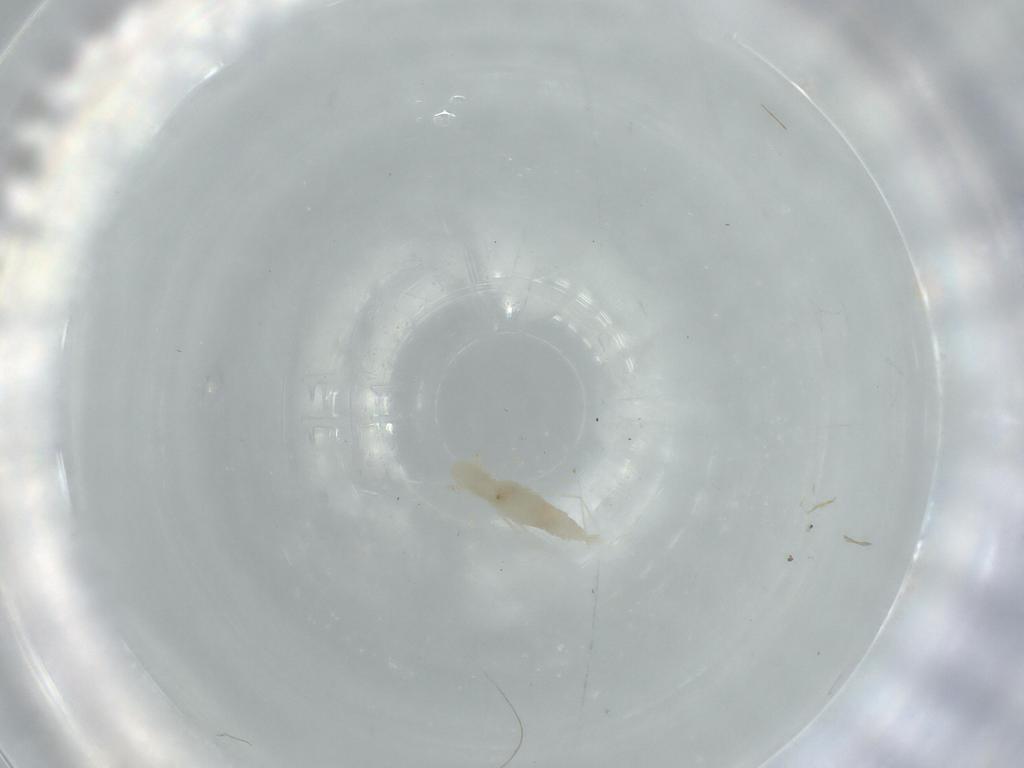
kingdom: Animalia
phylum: Arthropoda
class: Insecta
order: Diptera
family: Cecidomyiidae
